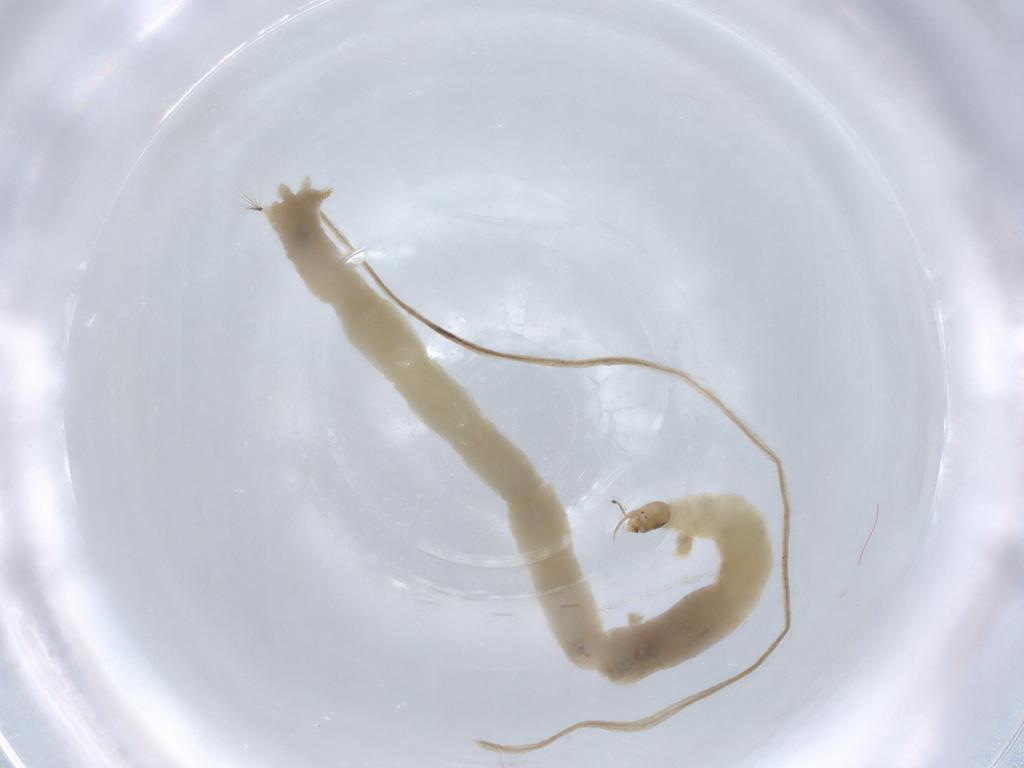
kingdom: Animalia
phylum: Arthropoda
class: Insecta
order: Diptera
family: Chironomidae
